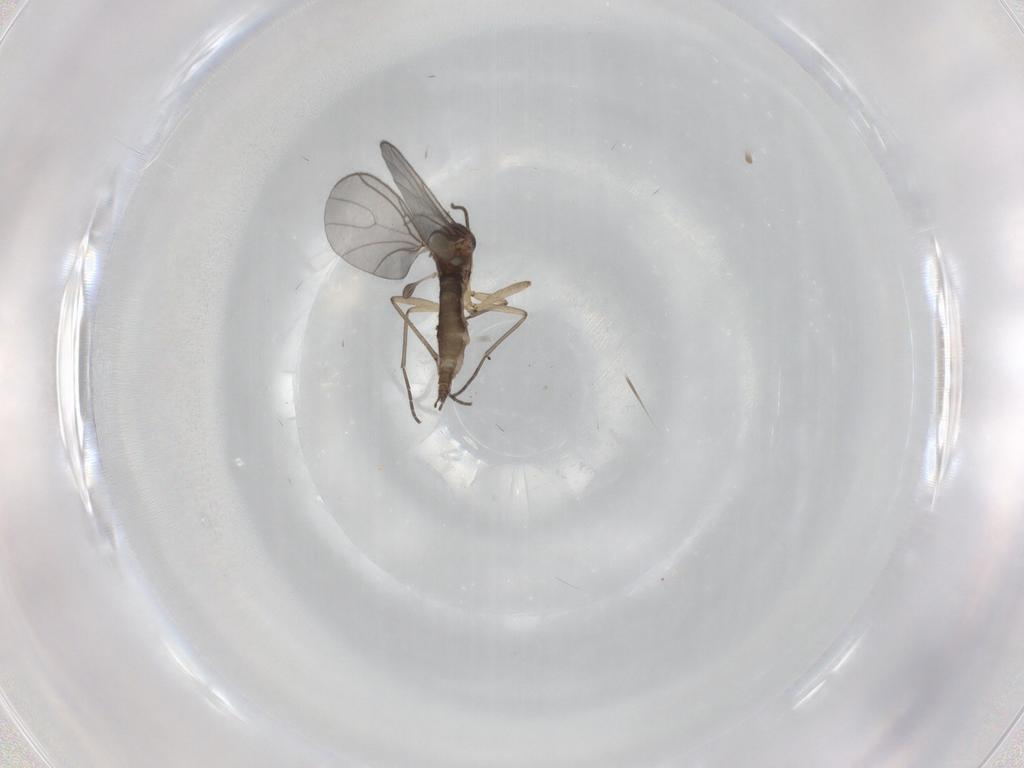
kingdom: Animalia
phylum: Arthropoda
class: Insecta
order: Diptera
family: Sciaridae
